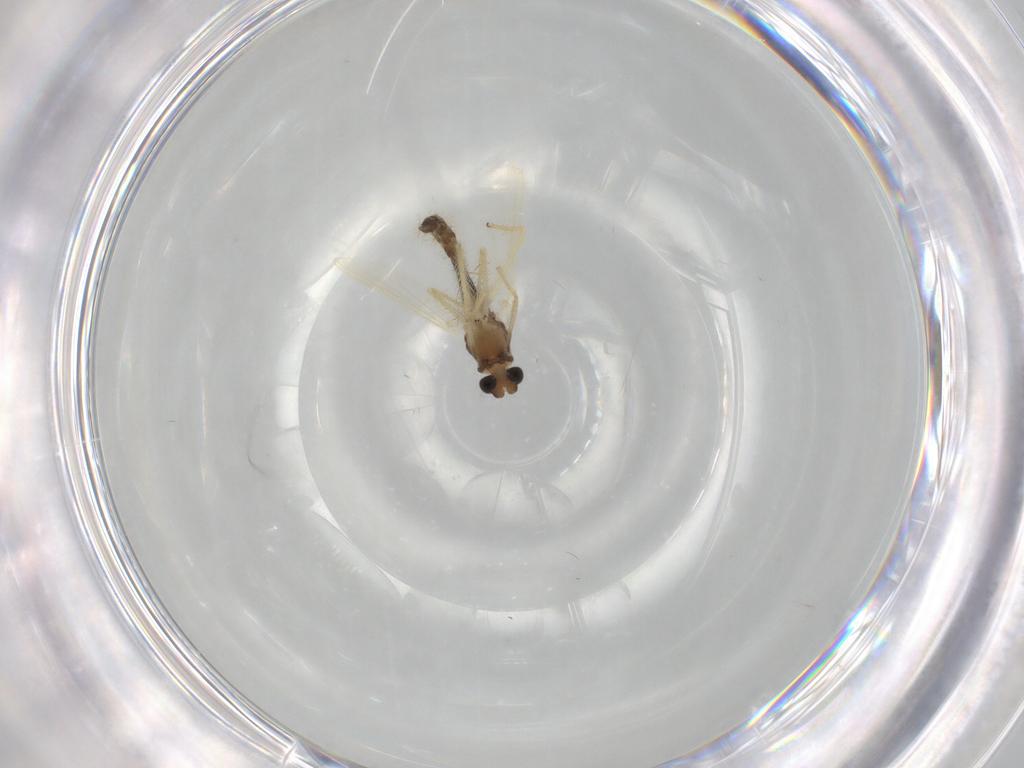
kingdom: Animalia
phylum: Arthropoda
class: Insecta
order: Diptera
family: Chironomidae
